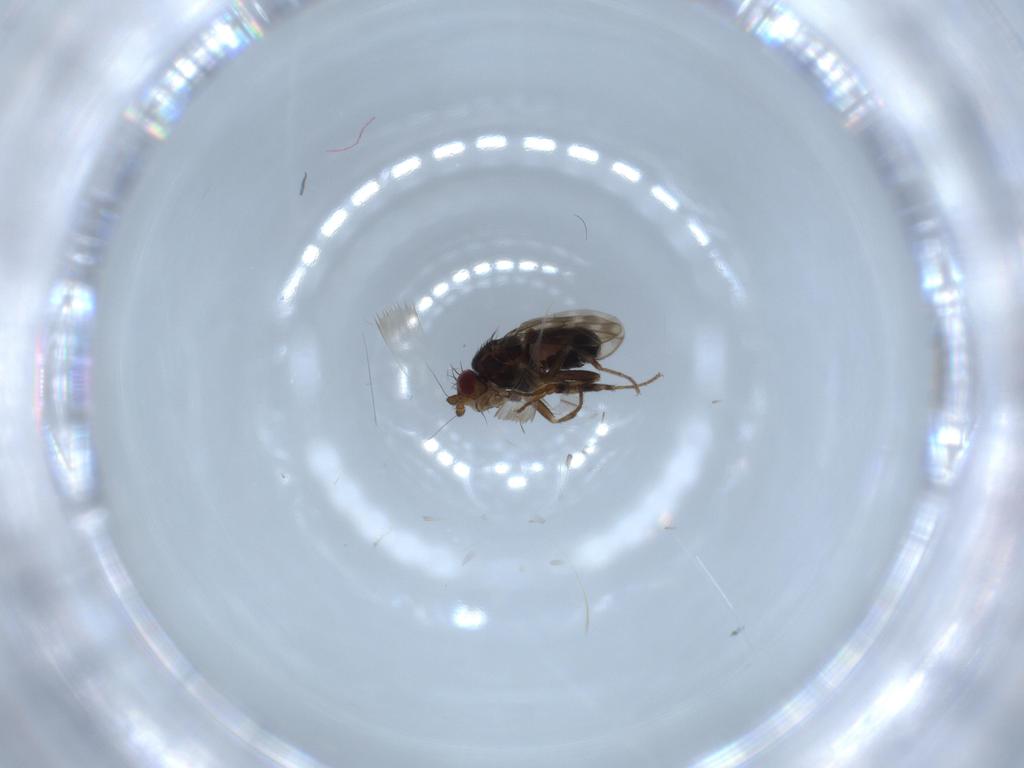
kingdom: Animalia
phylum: Arthropoda
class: Insecta
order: Diptera
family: Sphaeroceridae
